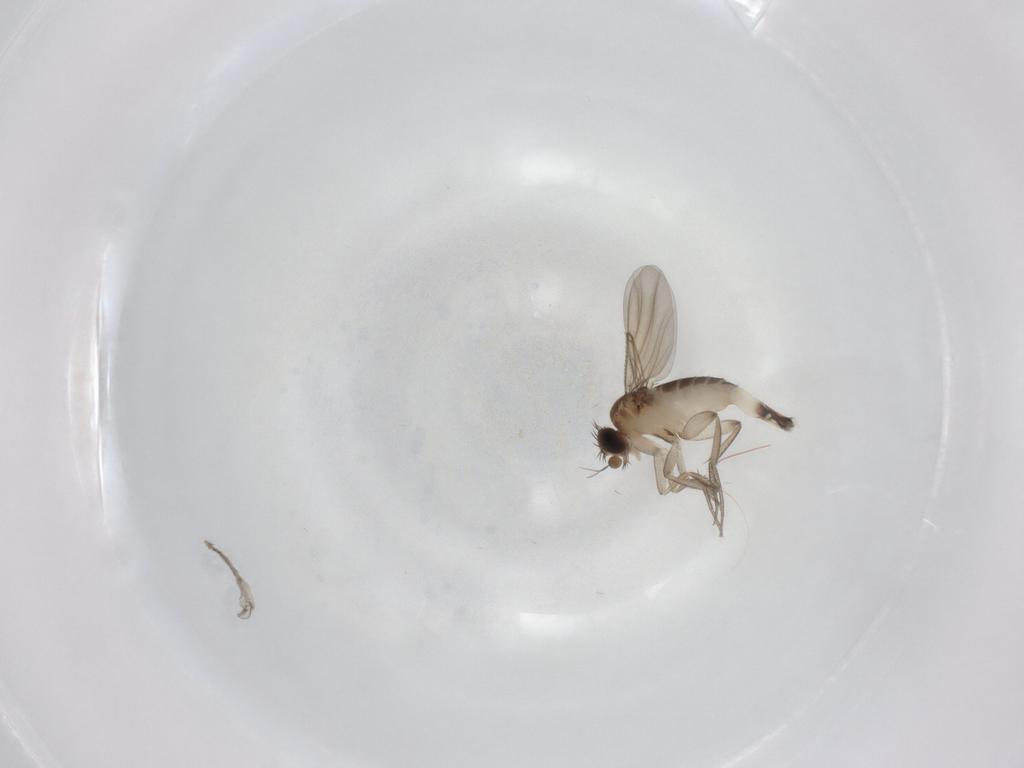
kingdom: Animalia
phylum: Arthropoda
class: Insecta
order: Diptera
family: Phoridae
